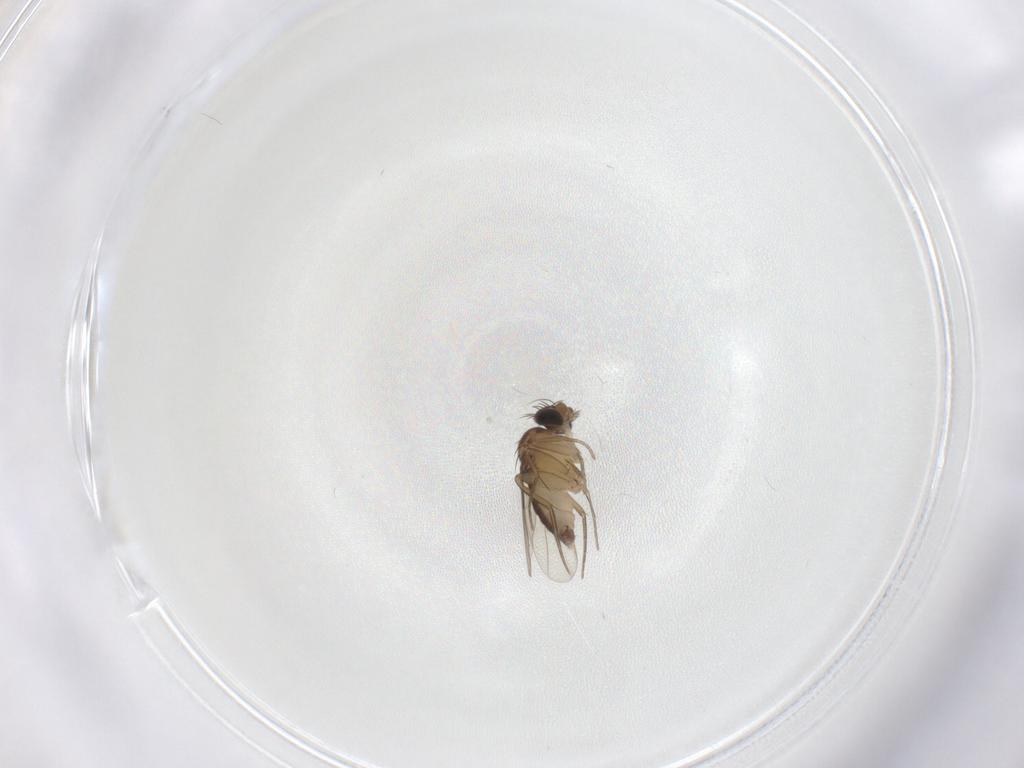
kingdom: Animalia
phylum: Arthropoda
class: Insecta
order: Diptera
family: Phoridae
